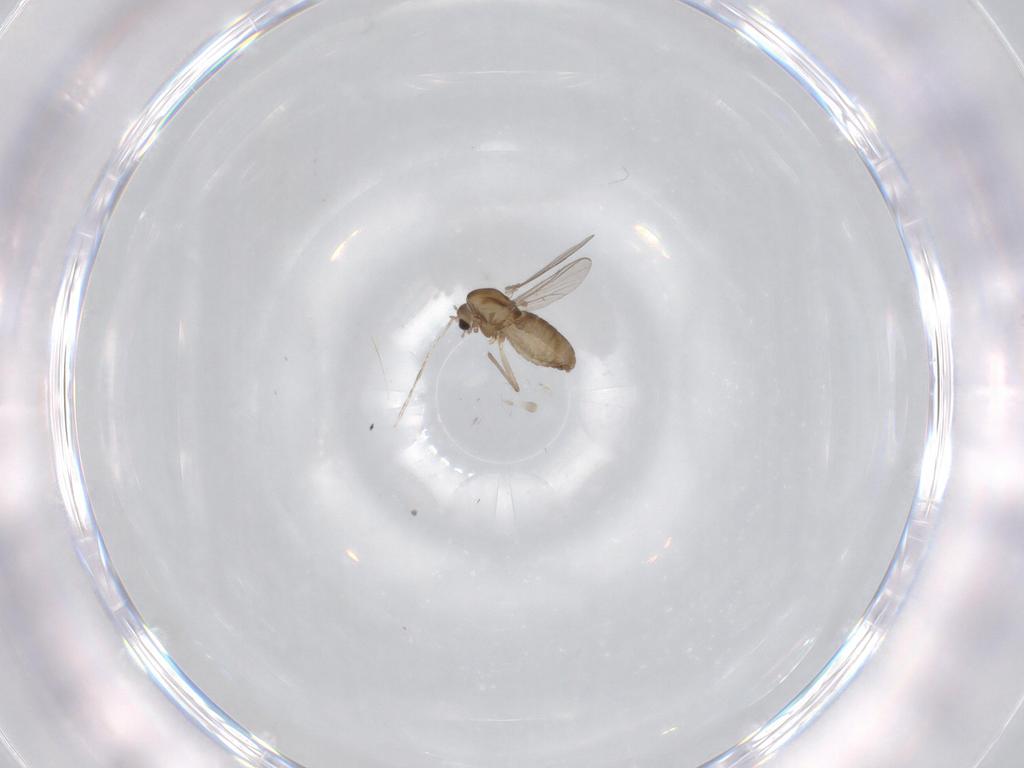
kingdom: Animalia
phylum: Arthropoda
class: Insecta
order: Diptera
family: Chironomidae
